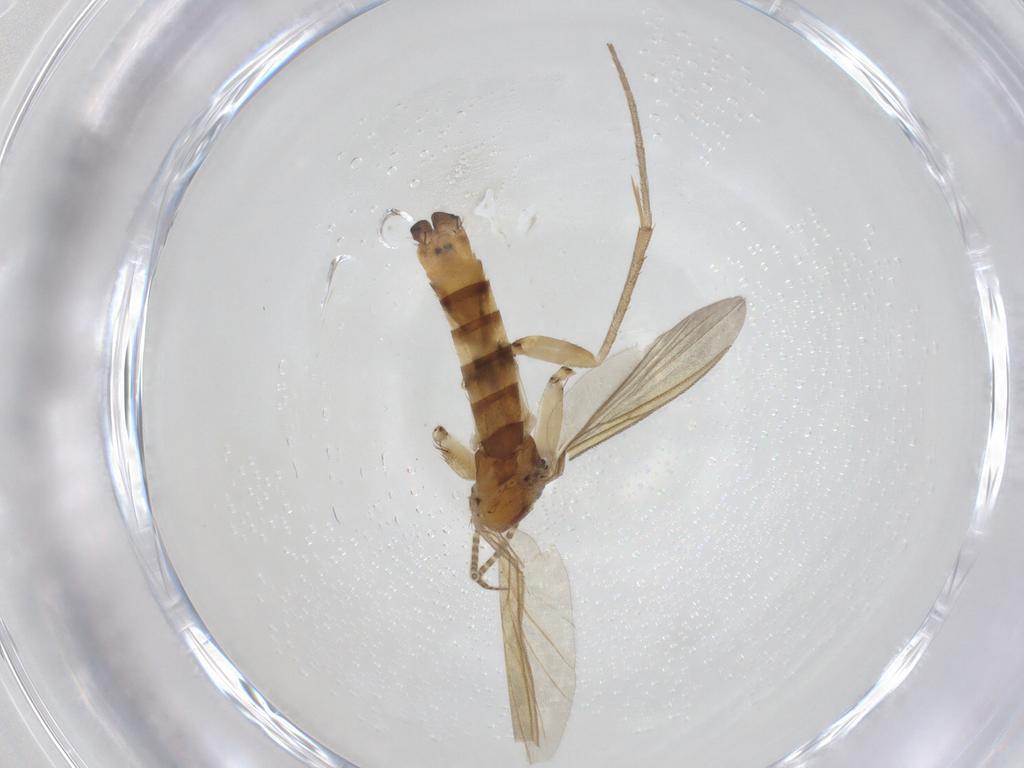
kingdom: Animalia
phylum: Arthropoda
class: Insecta
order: Diptera
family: Mycetophilidae
